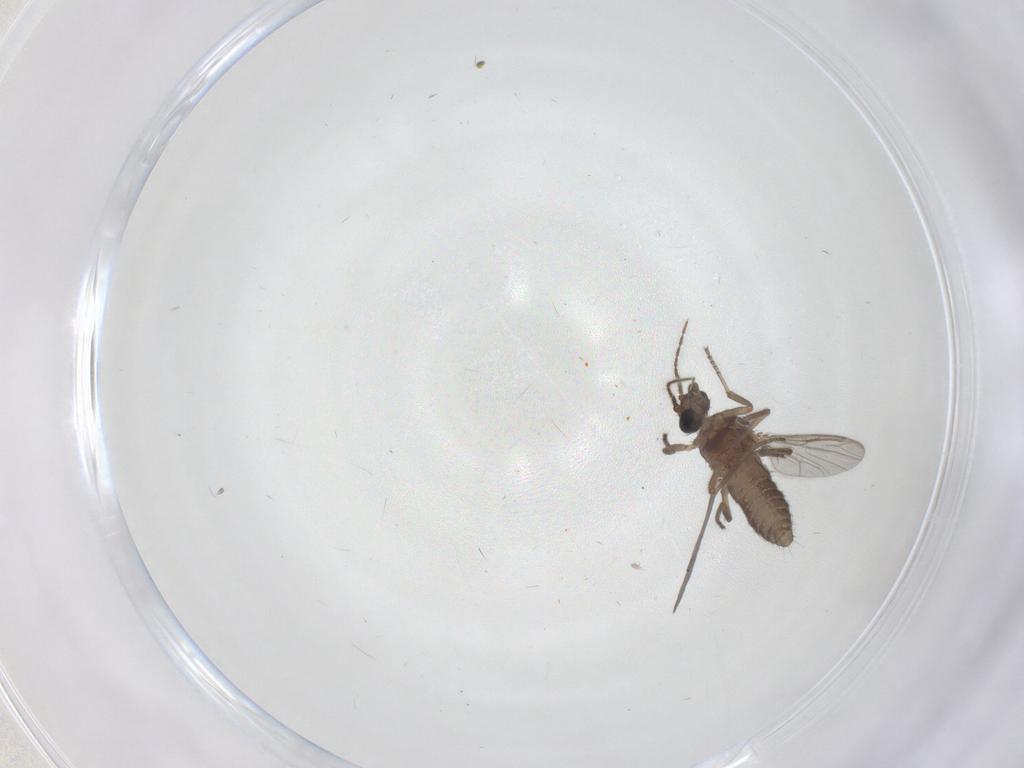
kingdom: Animalia
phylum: Arthropoda
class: Insecta
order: Diptera
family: Ceratopogonidae
